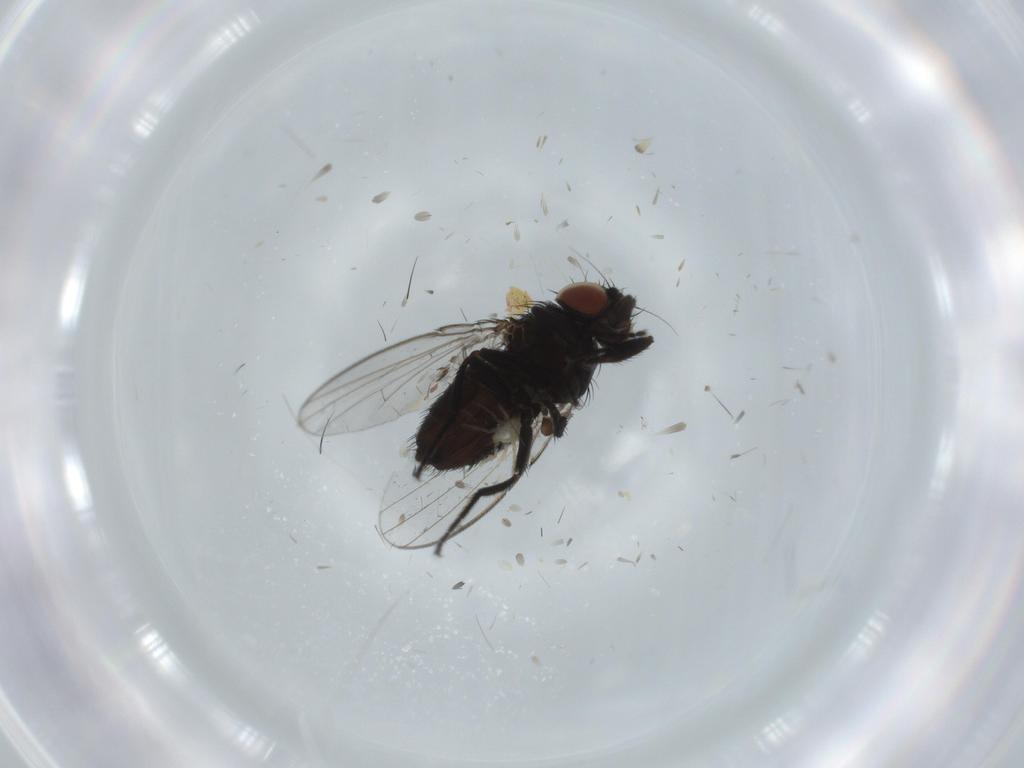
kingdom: Animalia
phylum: Arthropoda
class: Insecta
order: Diptera
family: Milichiidae
